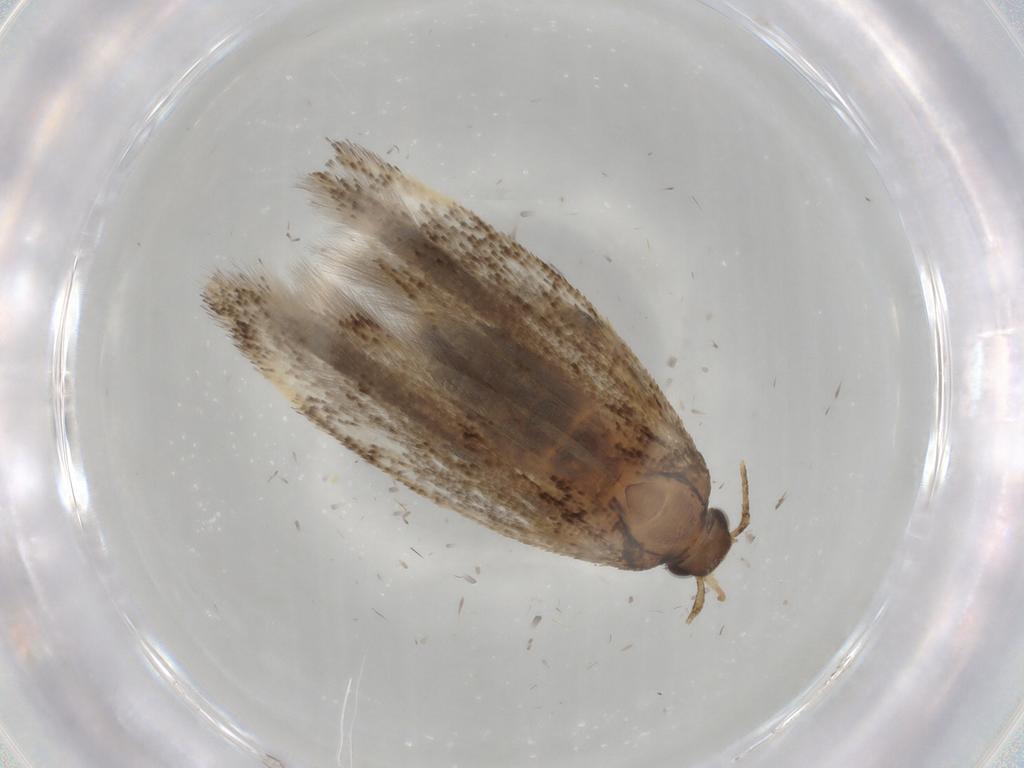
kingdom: Animalia
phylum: Arthropoda
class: Insecta
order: Lepidoptera
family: Gelechiidae
